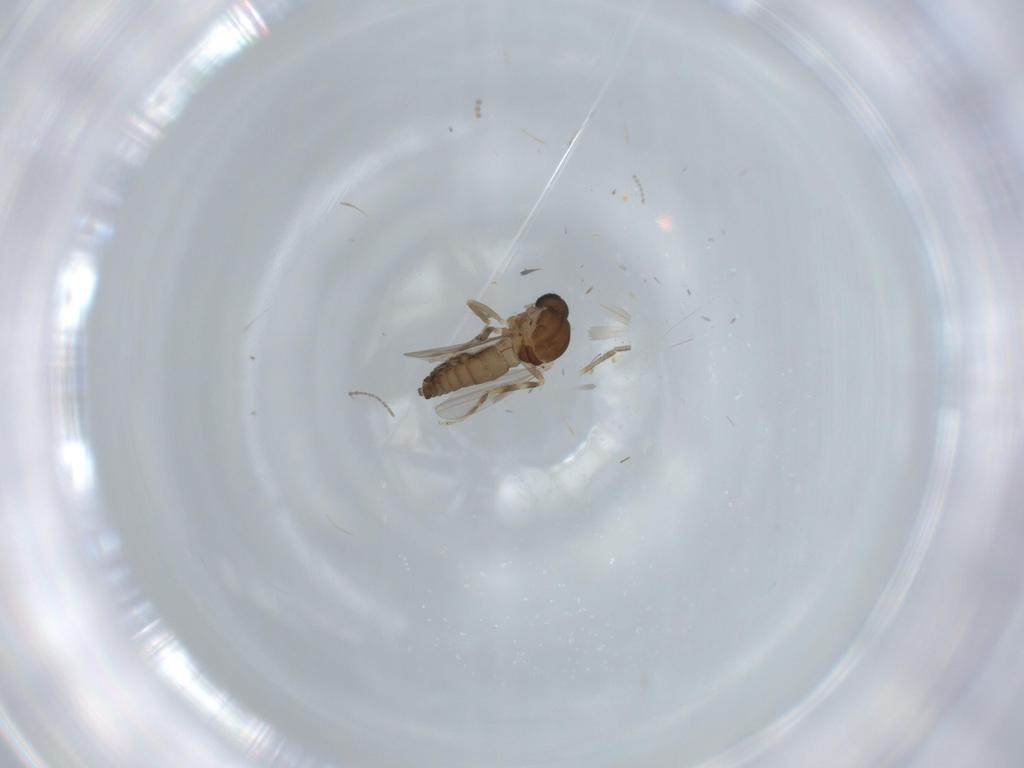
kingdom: Animalia
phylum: Arthropoda
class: Insecta
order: Diptera
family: Ceratopogonidae
